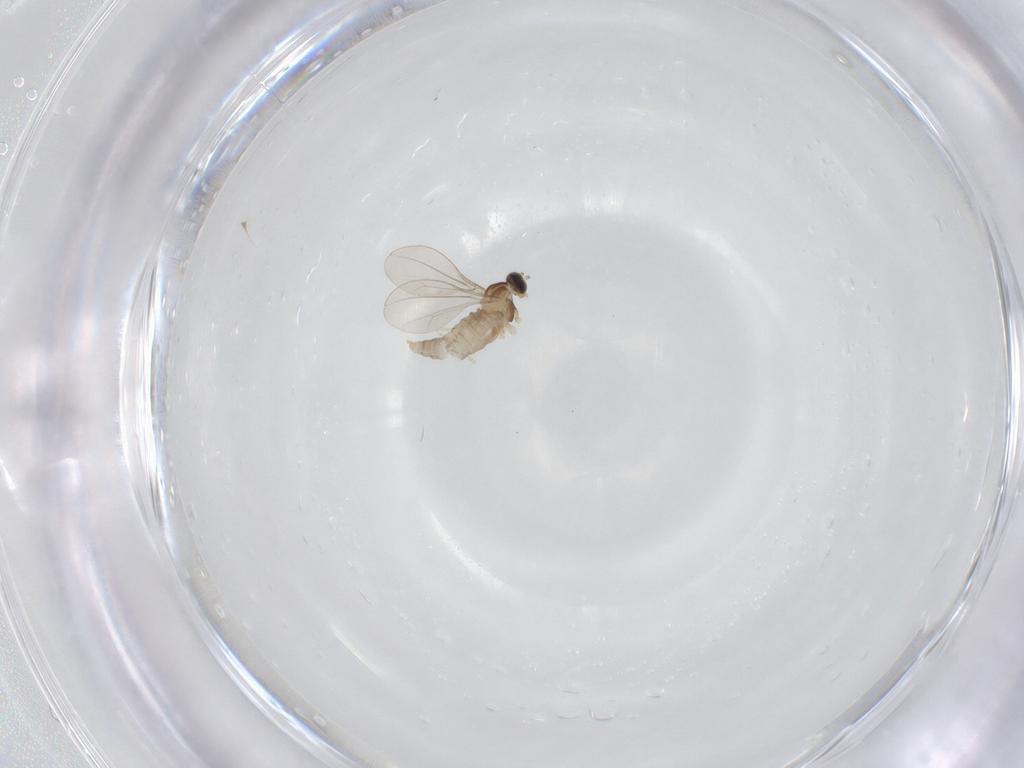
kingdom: Animalia
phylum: Arthropoda
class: Insecta
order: Diptera
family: Cecidomyiidae
